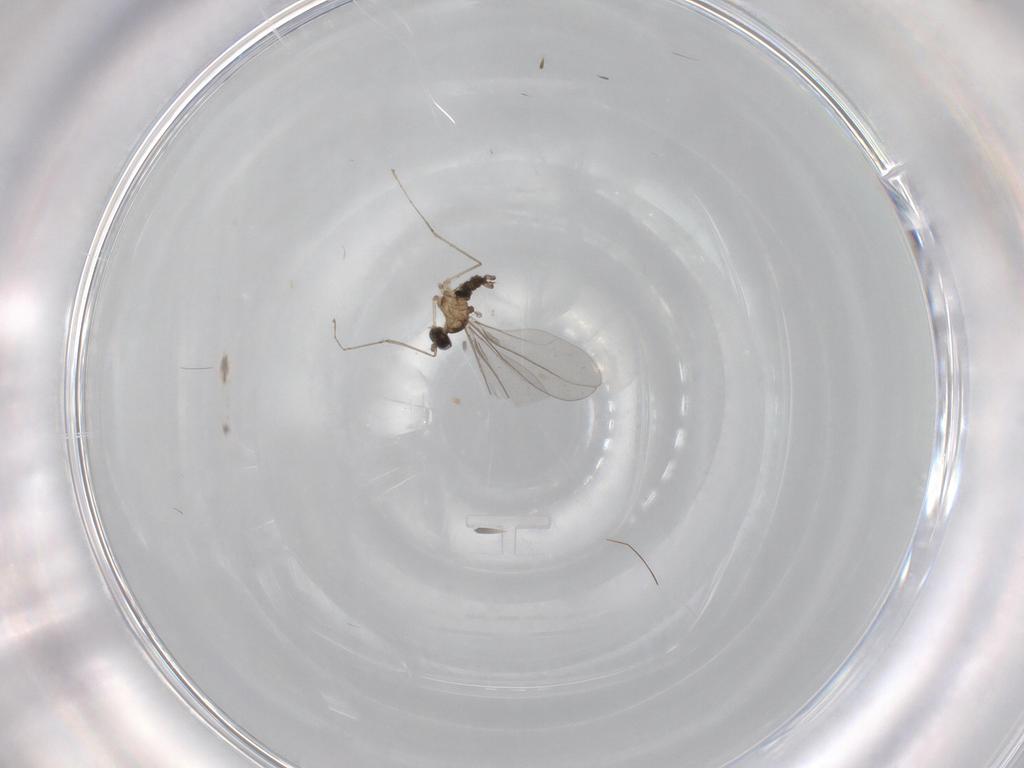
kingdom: Animalia
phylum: Arthropoda
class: Insecta
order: Diptera
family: Cecidomyiidae
